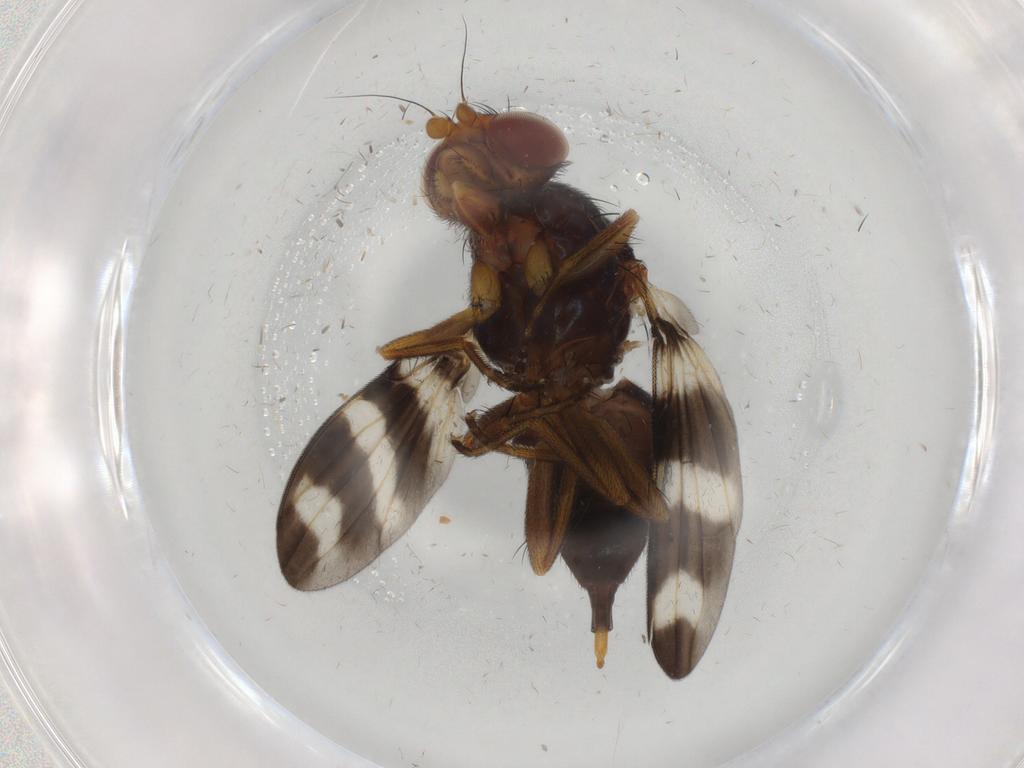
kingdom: Animalia
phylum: Arthropoda
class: Insecta
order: Diptera
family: Ulidiidae
